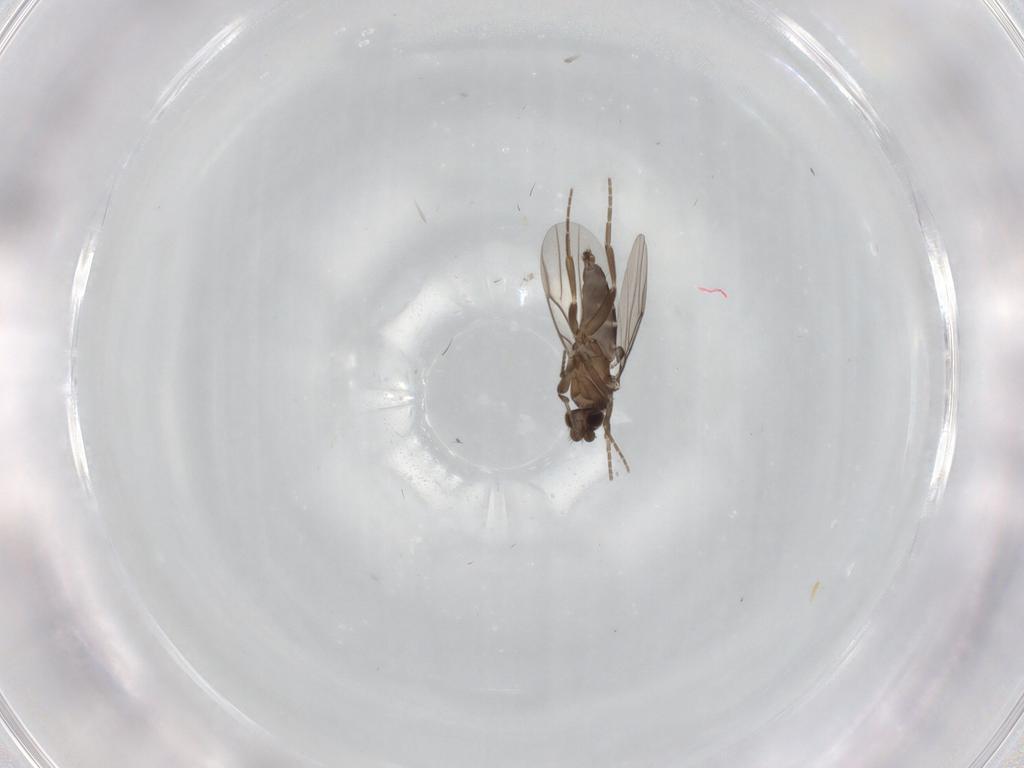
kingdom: Animalia
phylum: Arthropoda
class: Insecta
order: Diptera
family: Phoridae
